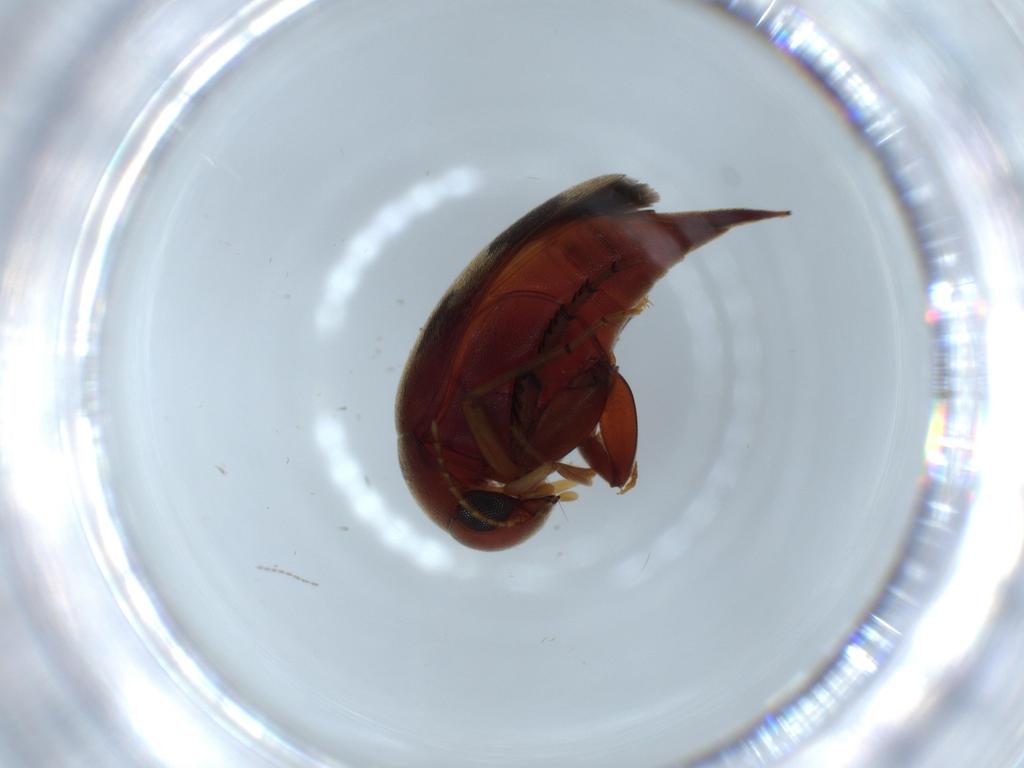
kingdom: Animalia
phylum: Arthropoda
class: Insecta
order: Coleoptera
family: Mordellidae
